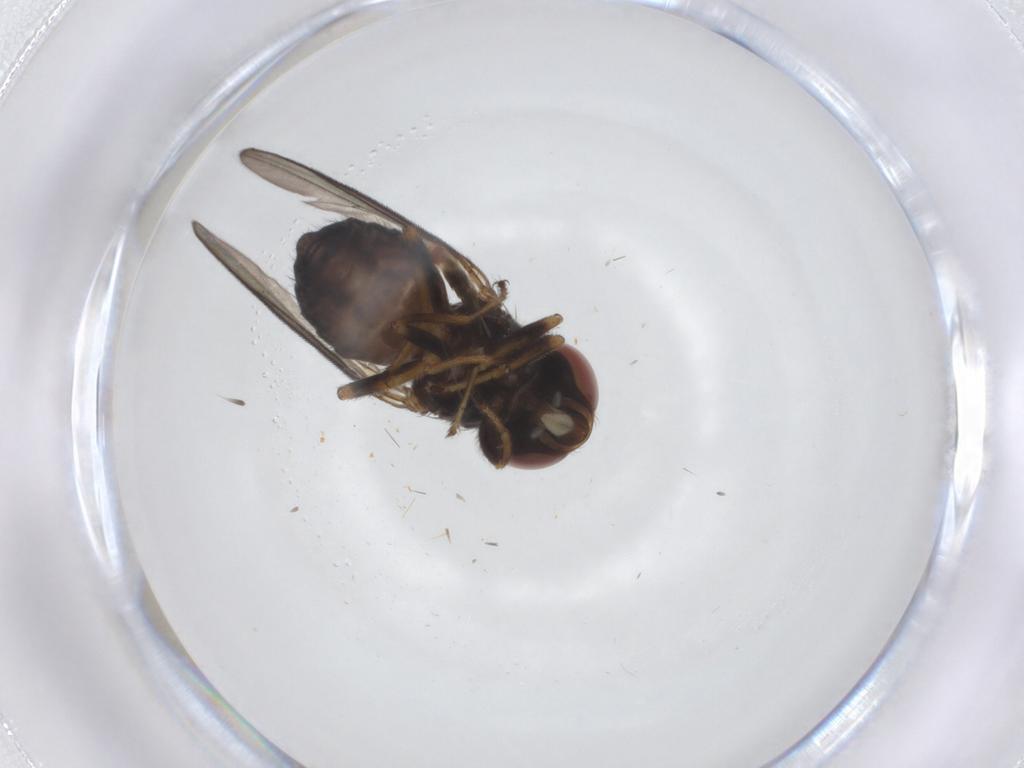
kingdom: Animalia
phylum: Arthropoda
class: Insecta
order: Diptera
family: Aulacigastridae
